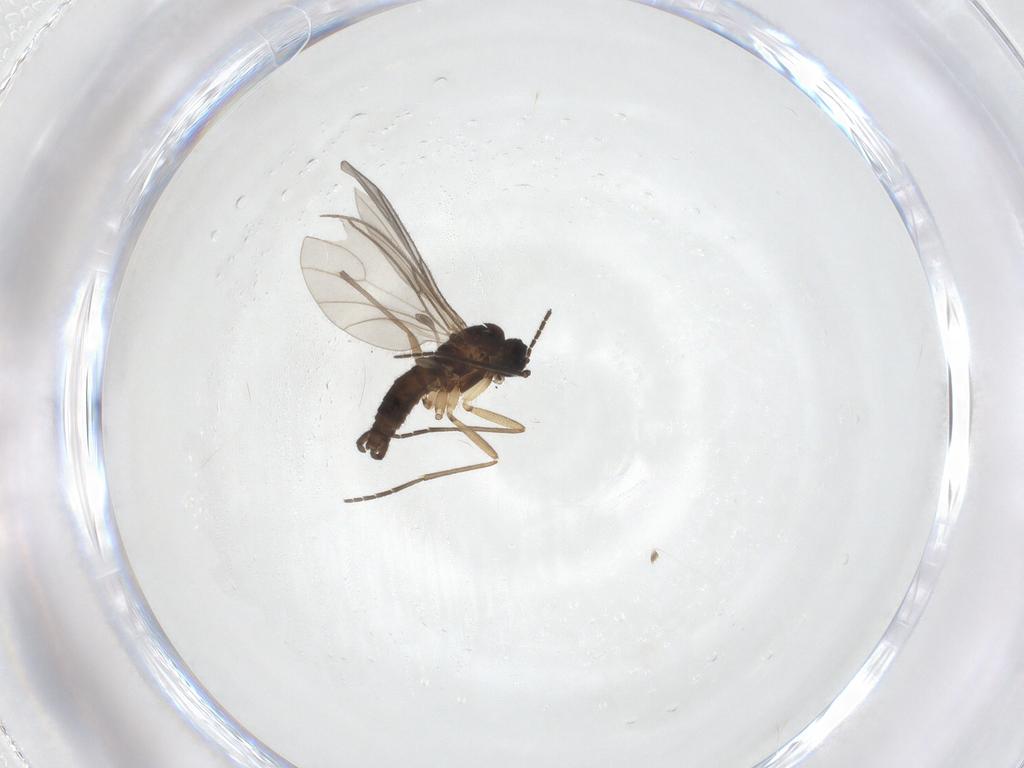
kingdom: Animalia
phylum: Arthropoda
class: Insecta
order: Diptera
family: Sciaridae
